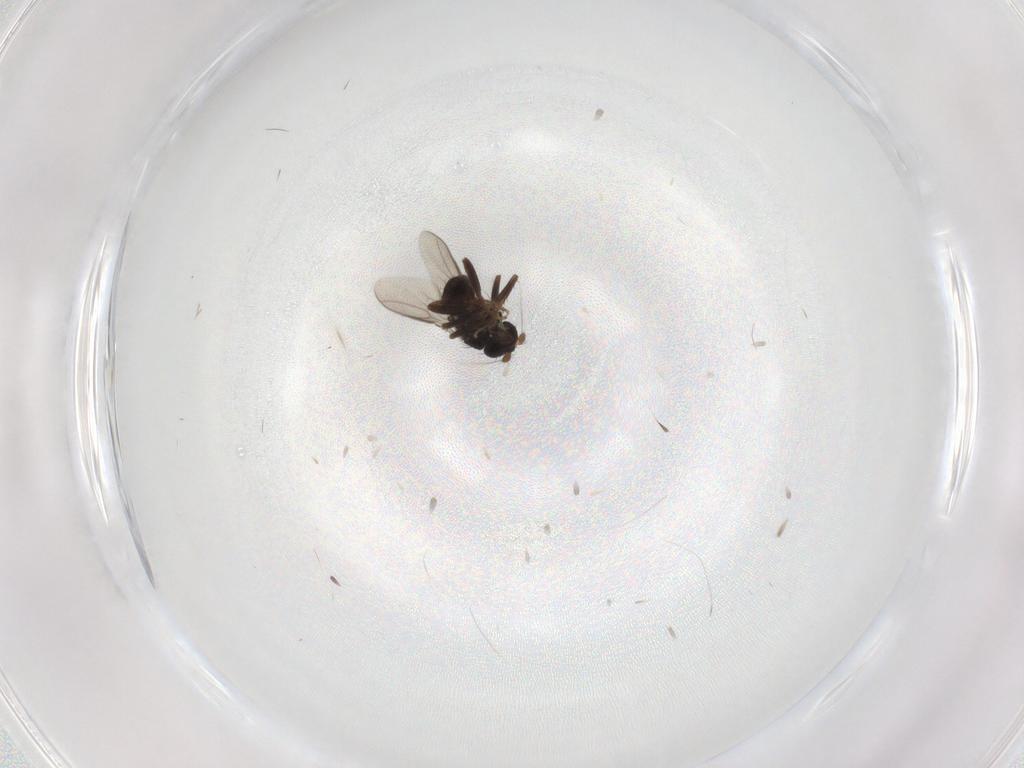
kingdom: Animalia
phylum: Arthropoda
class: Insecta
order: Diptera
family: Sphaeroceridae
